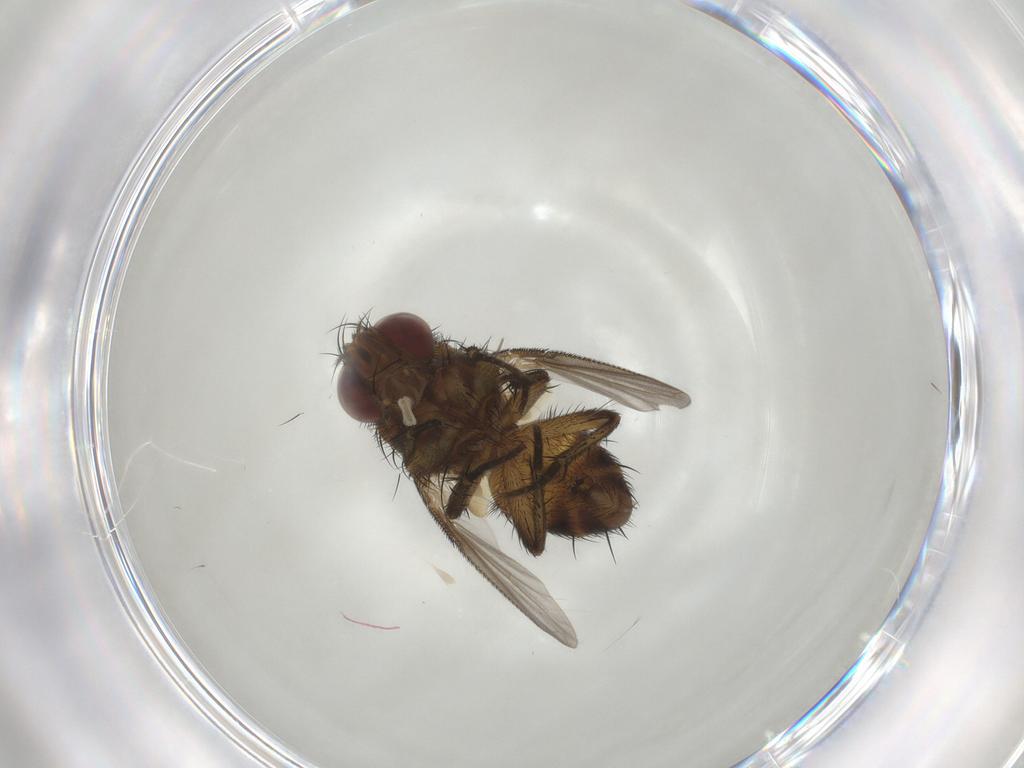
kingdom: Animalia
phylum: Arthropoda
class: Insecta
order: Diptera
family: Tachinidae
